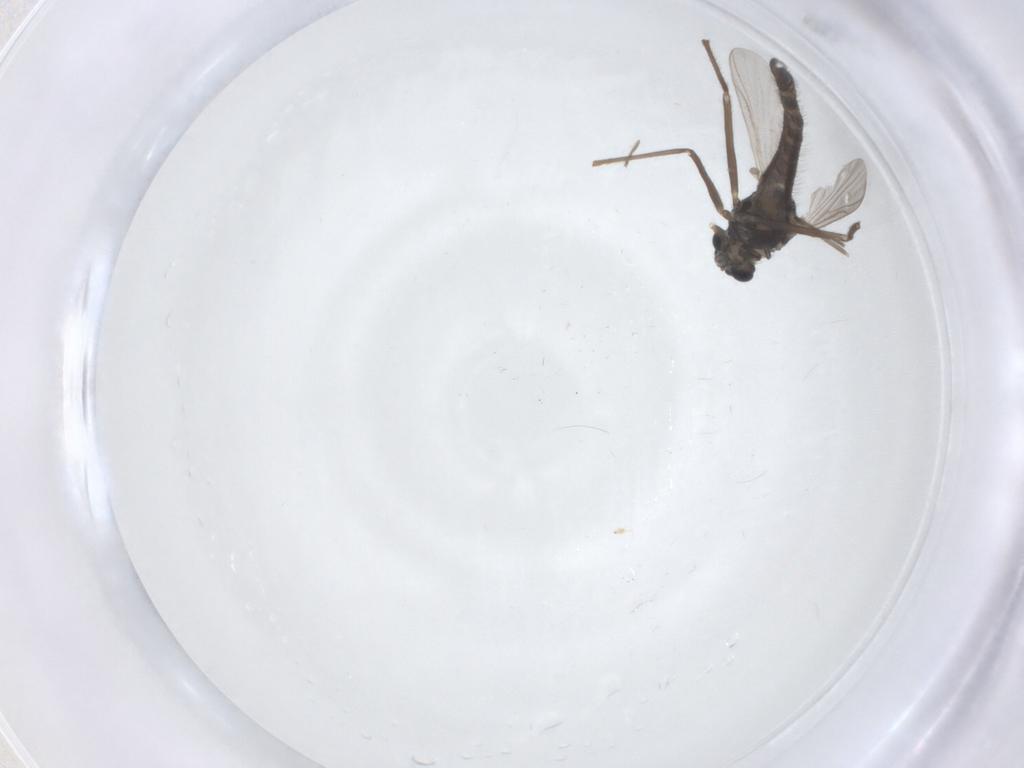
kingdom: Animalia
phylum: Arthropoda
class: Insecta
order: Diptera
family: Chironomidae
